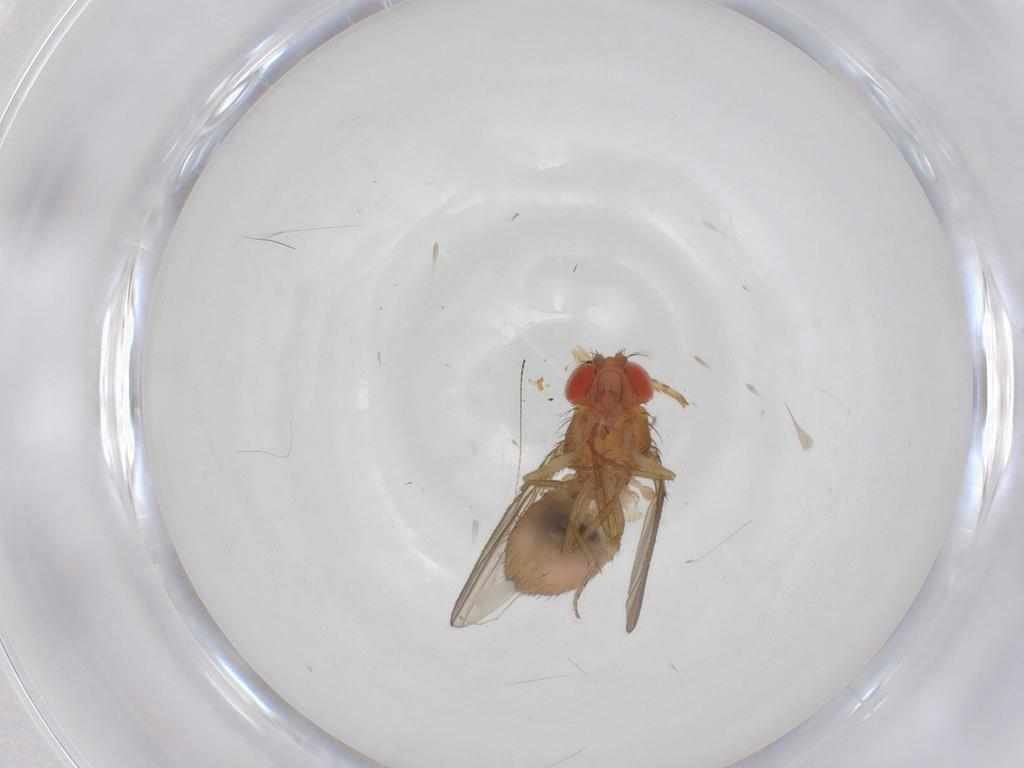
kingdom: Animalia
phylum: Arthropoda
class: Insecta
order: Diptera
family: Drosophilidae
